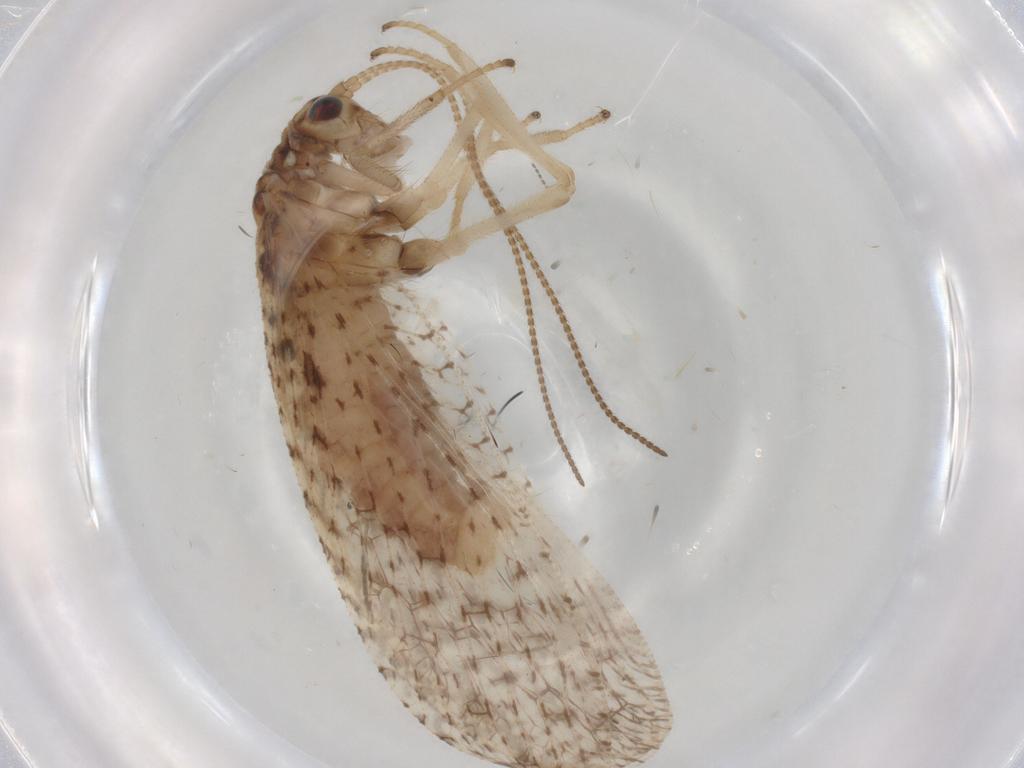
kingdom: Animalia
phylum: Arthropoda
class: Insecta
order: Neuroptera
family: Hemerobiidae
